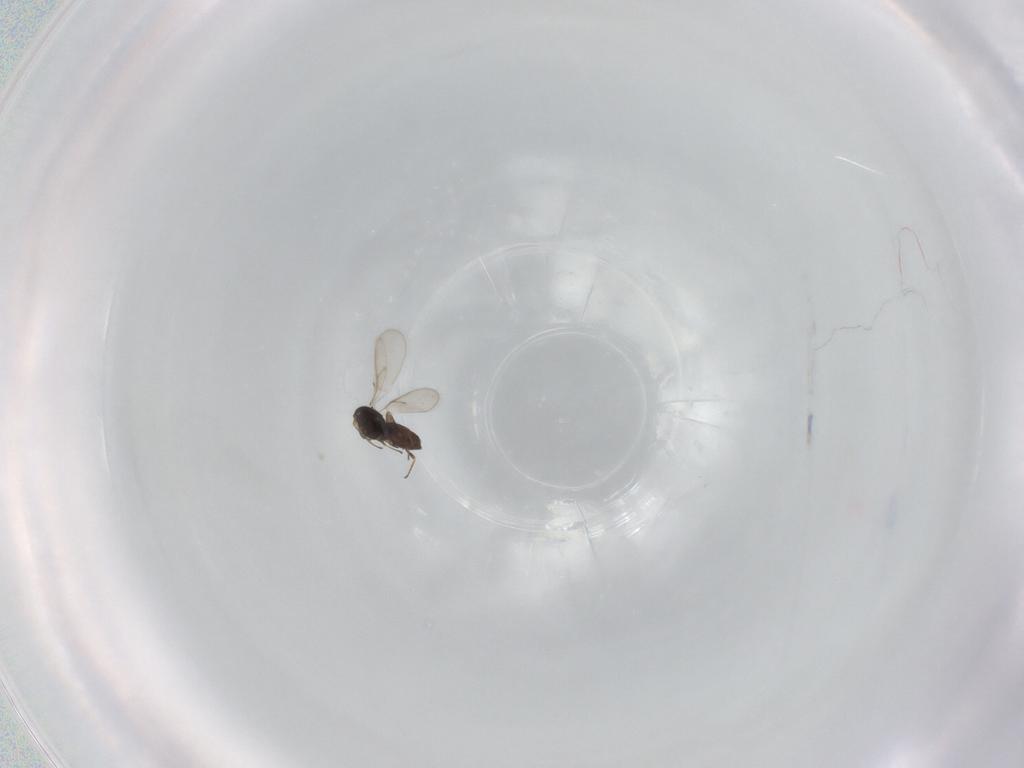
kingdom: Animalia
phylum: Arthropoda
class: Insecta
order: Hymenoptera
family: Scelionidae
